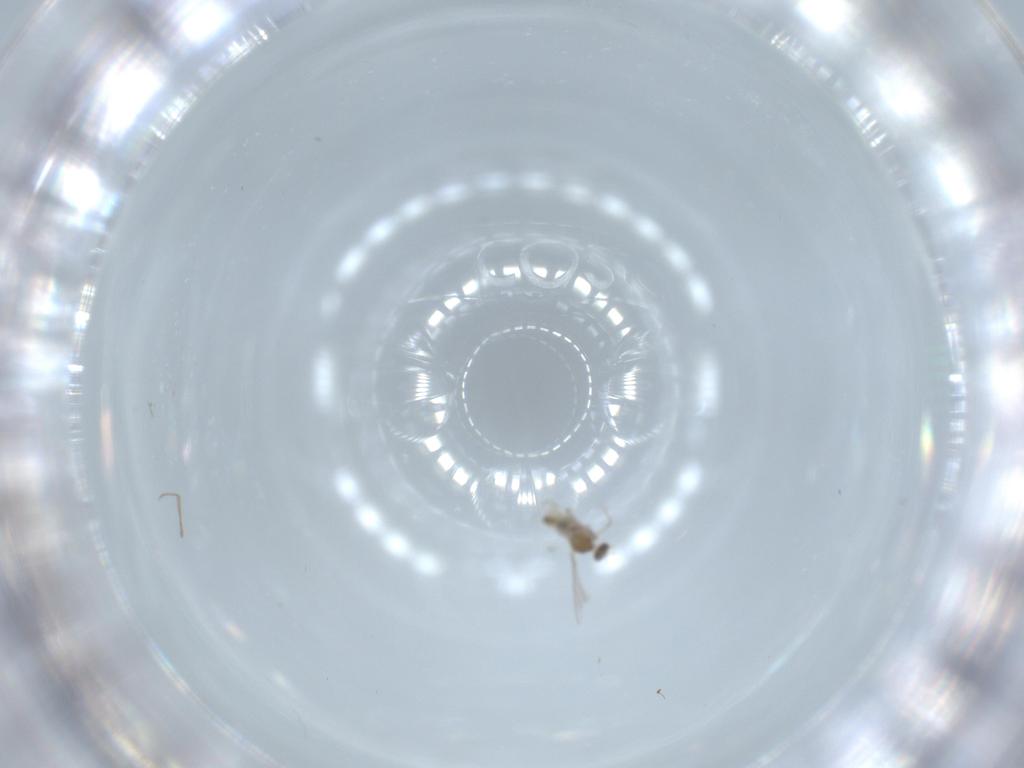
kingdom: Animalia
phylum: Arthropoda
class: Insecta
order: Diptera
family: Cecidomyiidae
